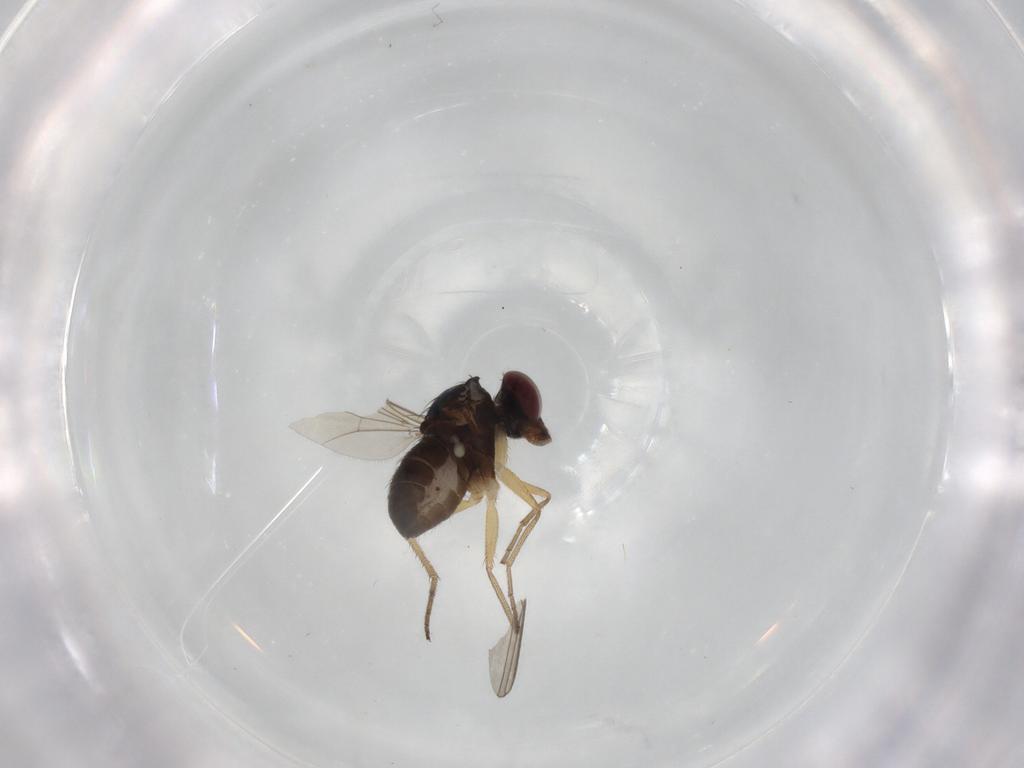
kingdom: Animalia
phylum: Arthropoda
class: Insecta
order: Diptera
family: Dolichopodidae
